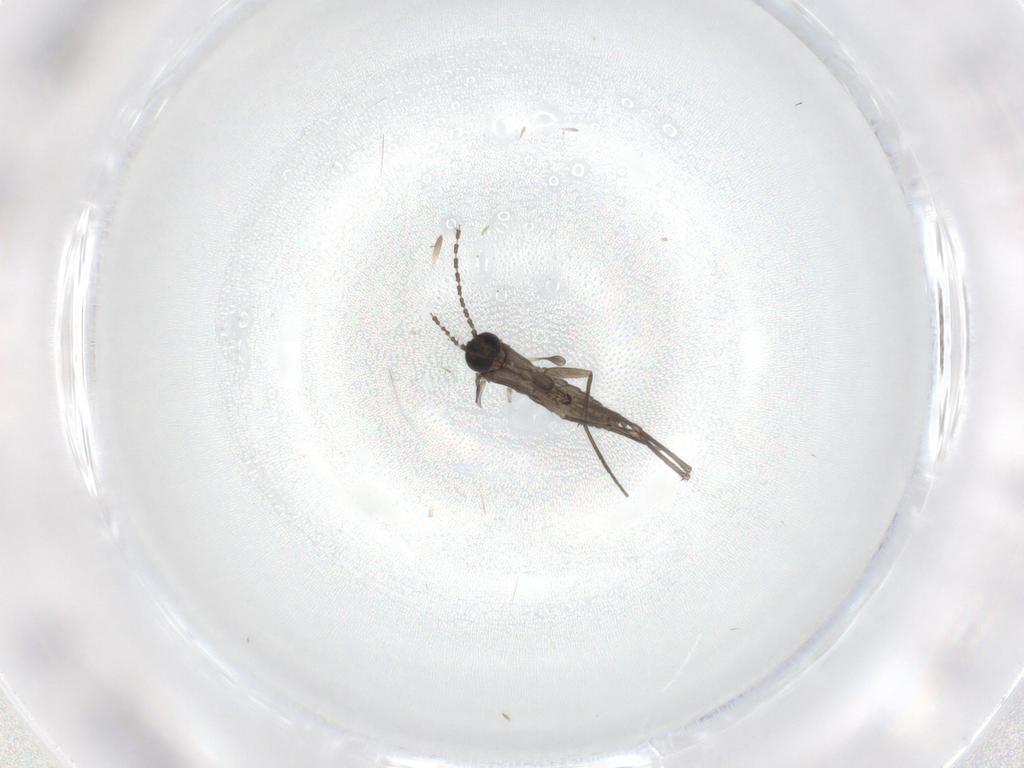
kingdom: Animalia
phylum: Arthropoda
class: Insecta
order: Diptera
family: Sciaridae
